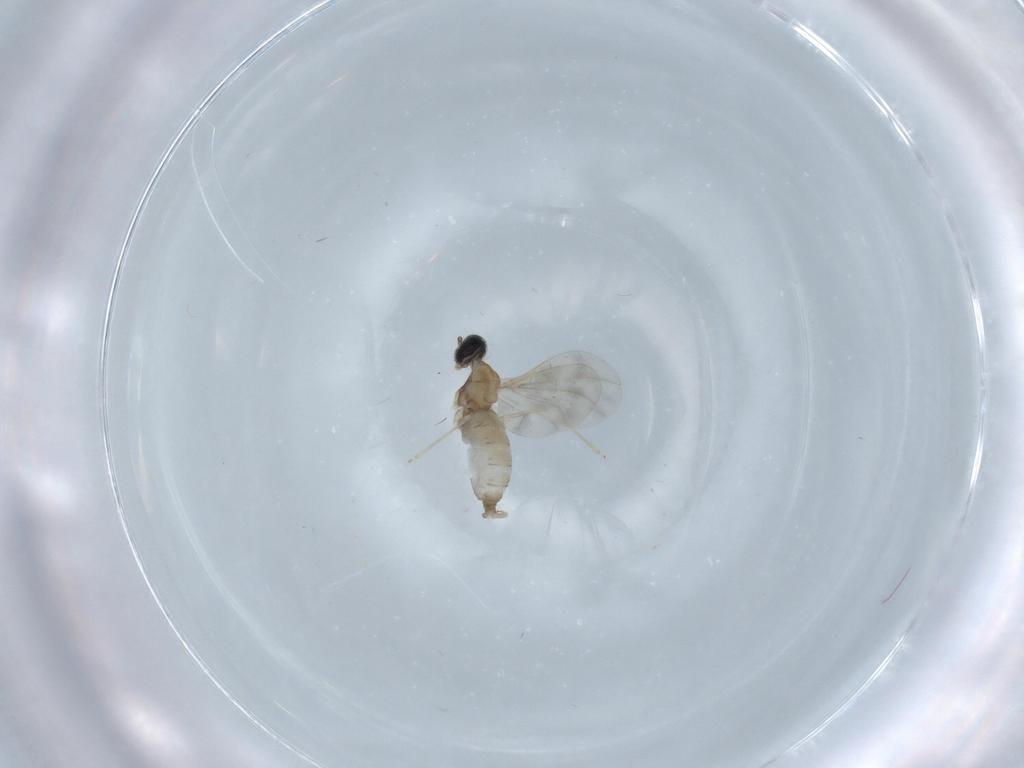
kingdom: Animalia
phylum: Arthropoda
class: Insecta
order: Diptera
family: Cecidomyiidae
